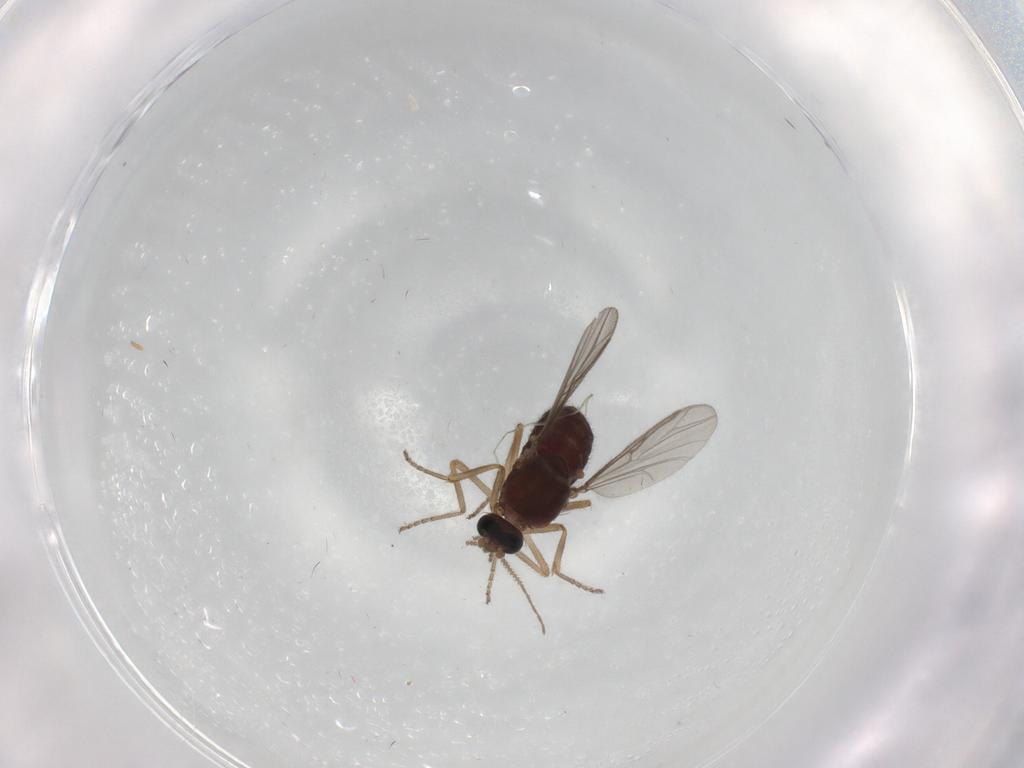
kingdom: Animalia
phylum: Arthropoda
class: Insecta
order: Diptera
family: Ceratopogonidae
